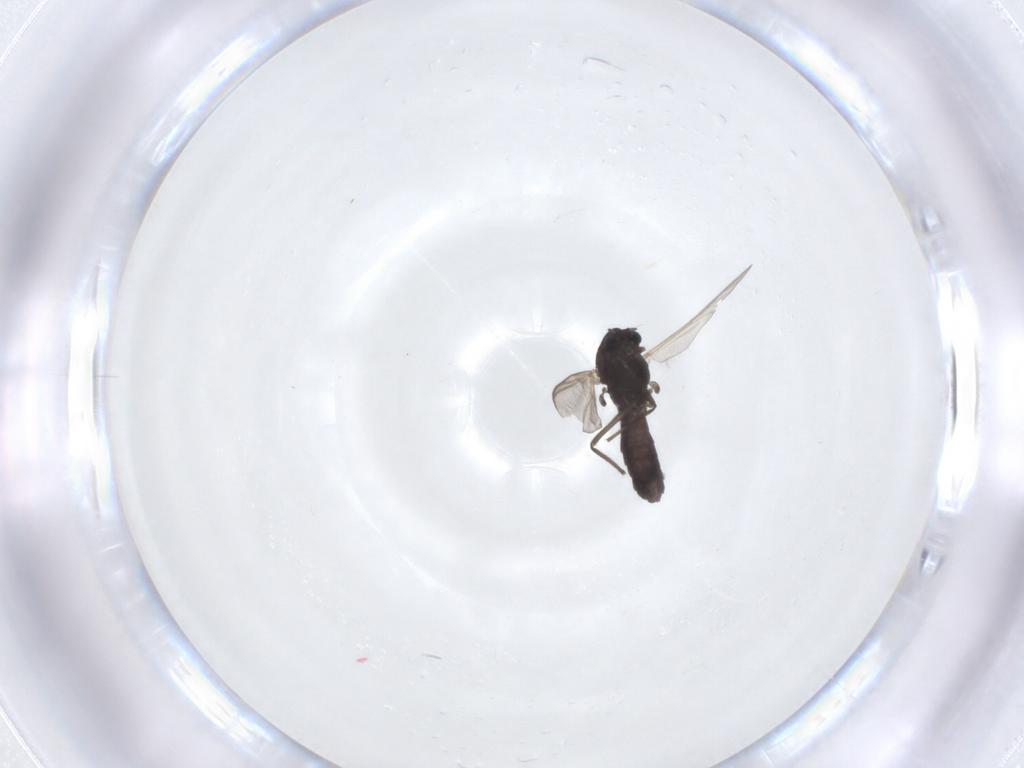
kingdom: Animalia
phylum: Arthropoda
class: Insecta
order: Diptera
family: Chironomidae
